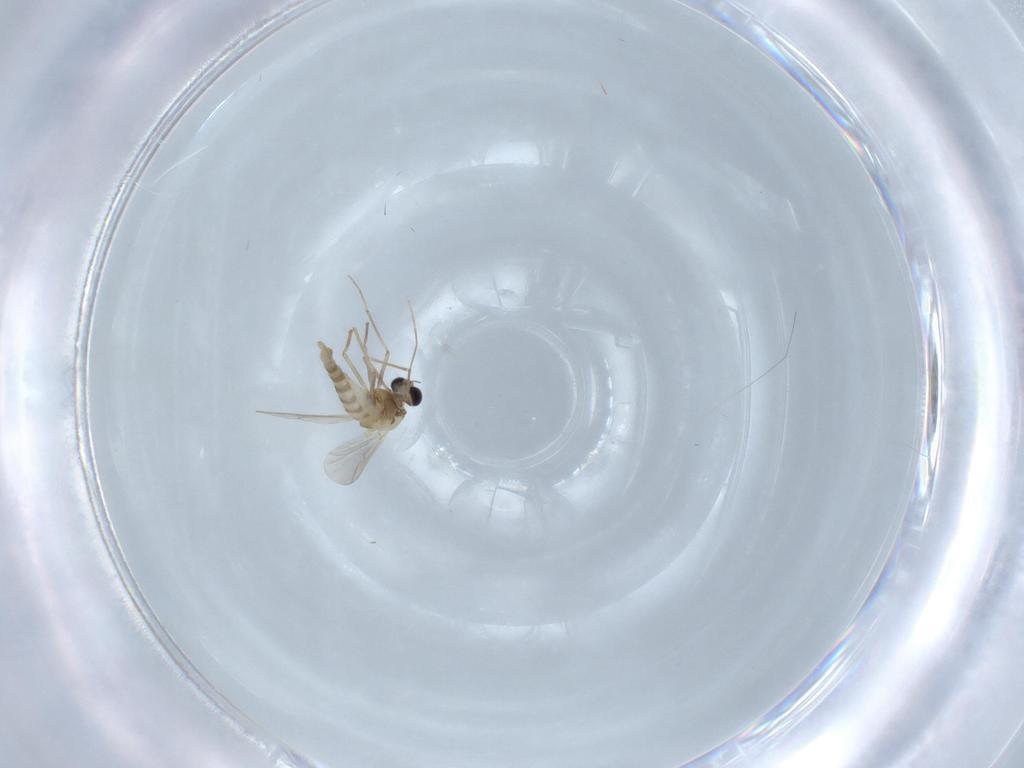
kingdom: Animalia
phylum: Arthropoda
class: Insecta
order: Diptera
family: Chironomidae
